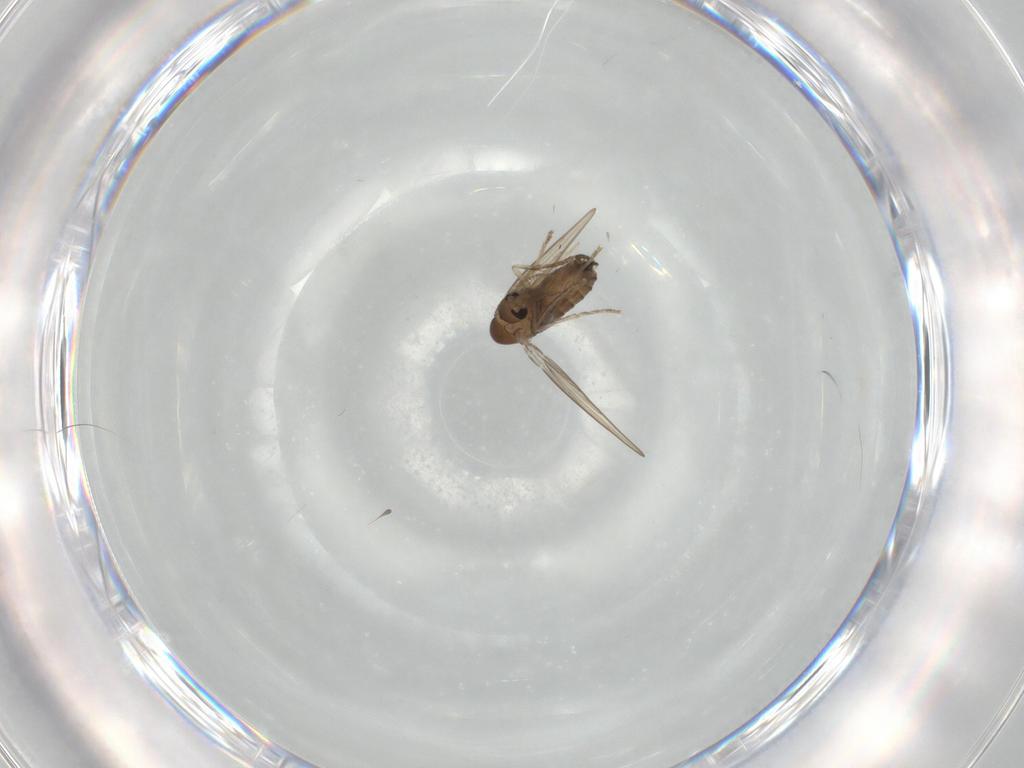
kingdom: Animalia
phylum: Arthropoda
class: Insecta
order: Diptera
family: Psychodidae
